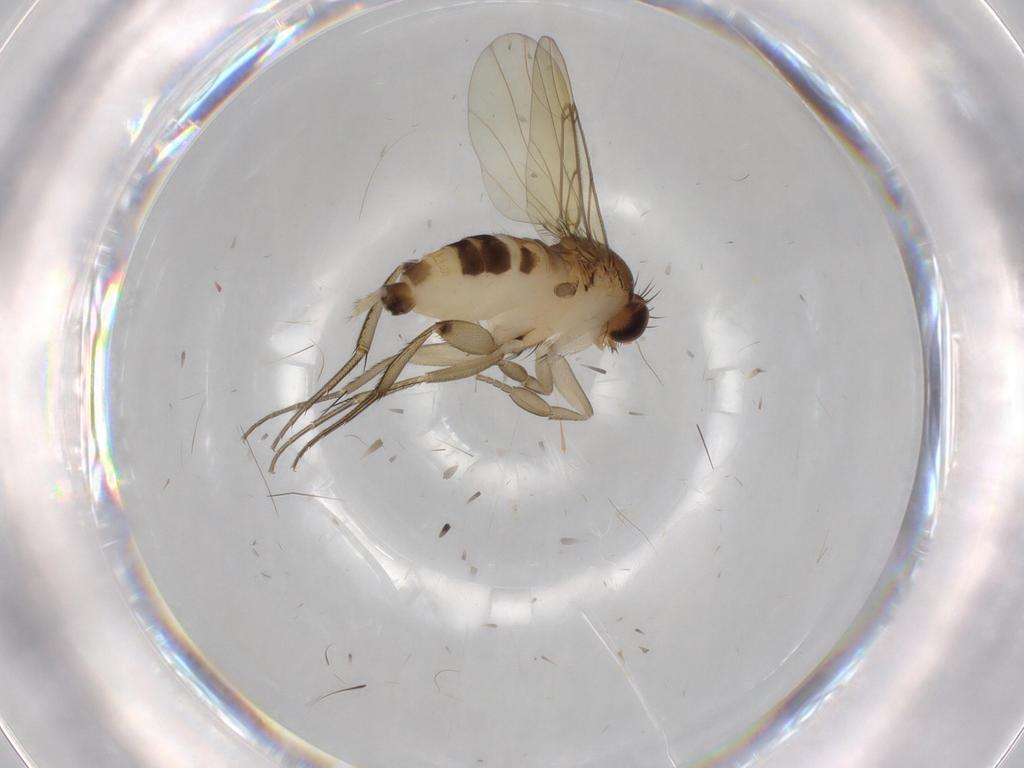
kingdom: Animalia
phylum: Arthropoda
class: Insecta
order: Diptera
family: Phoridae
